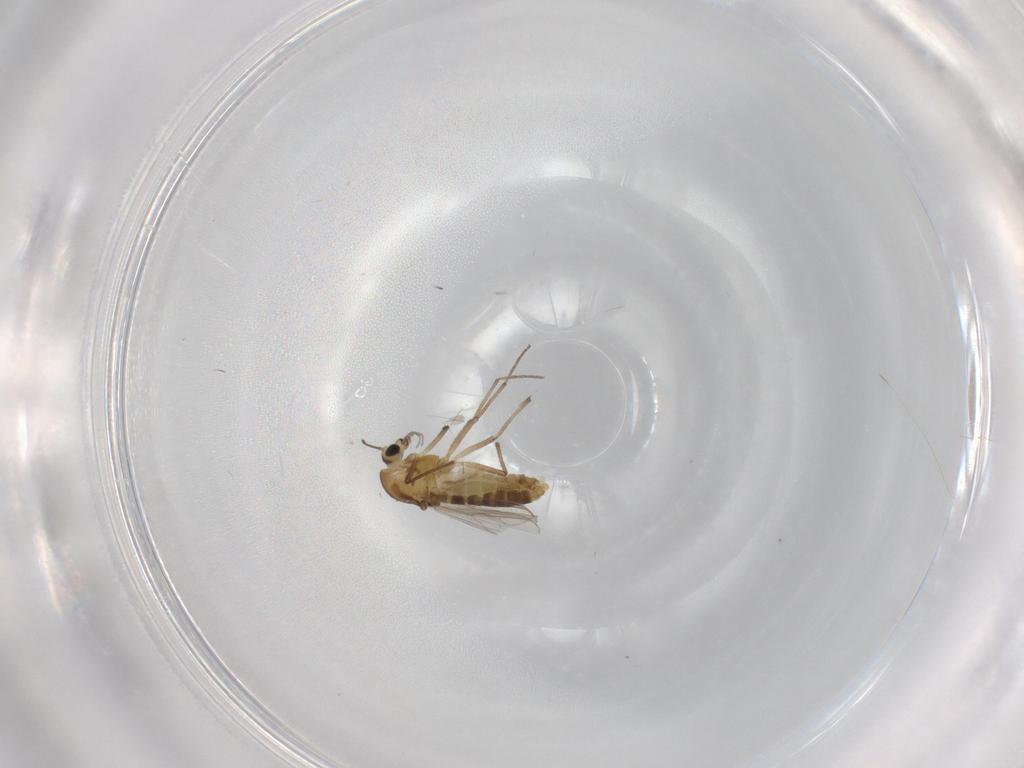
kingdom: Animalia
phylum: Arthropoda
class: Insecta
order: Diptera
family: Chironomidae
